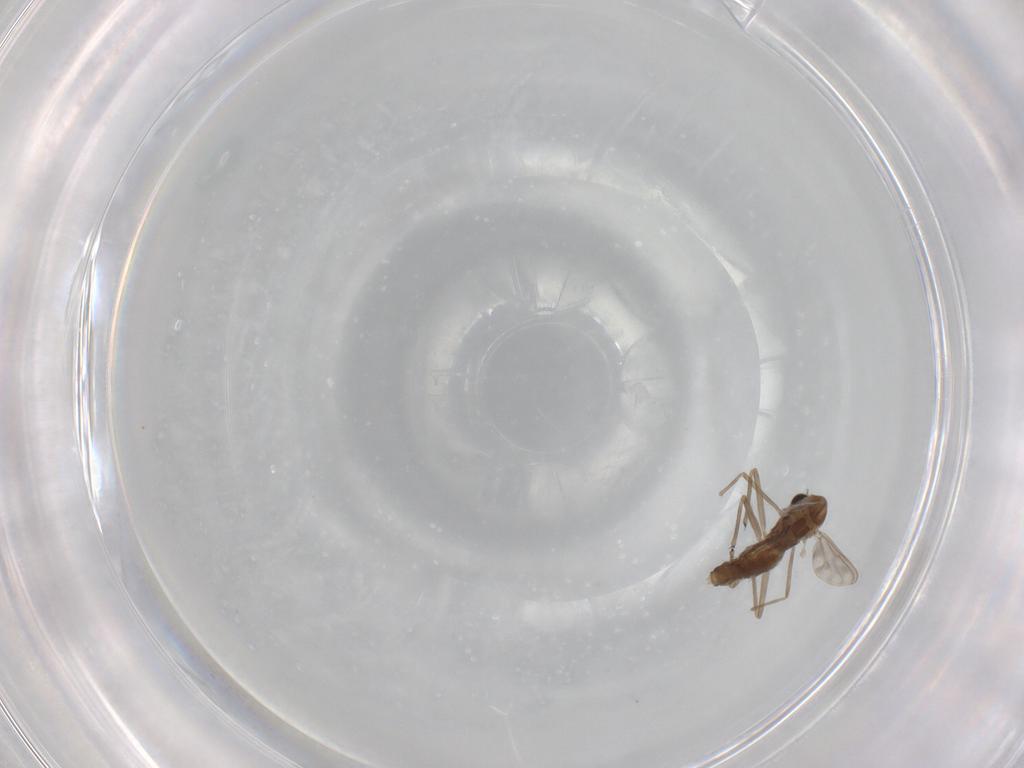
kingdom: Animalia
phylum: Arthropoda
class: Insecta
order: Diptera
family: Chironomidae
